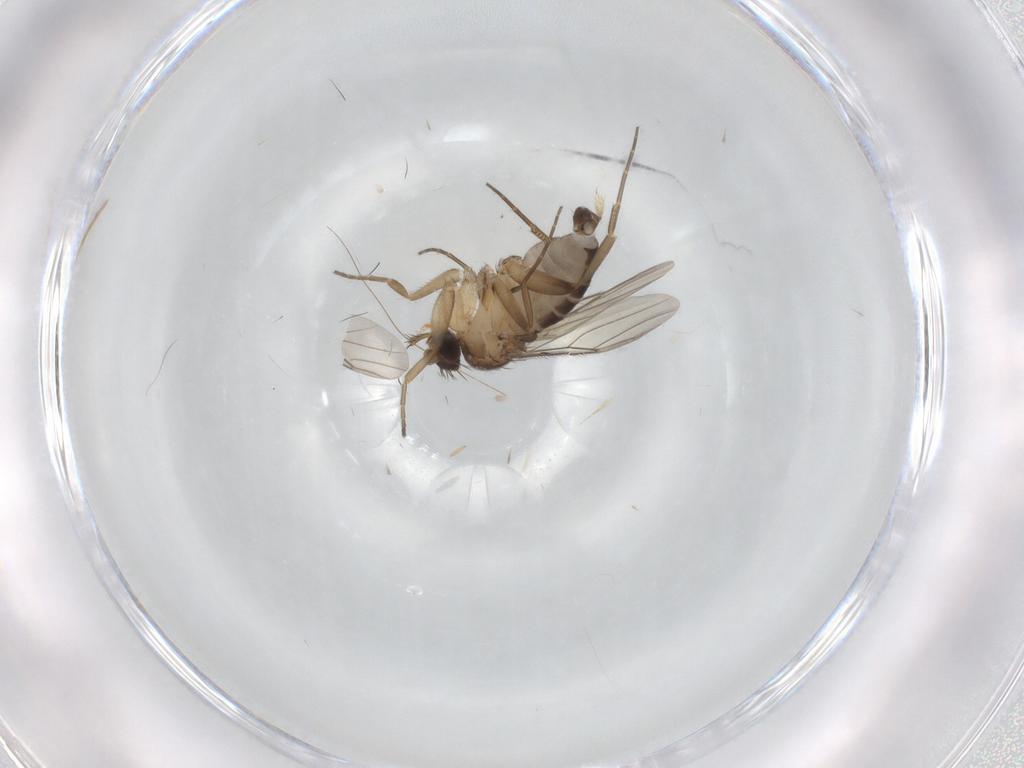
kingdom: Animalia
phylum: Arthropoda
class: Insecta
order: Diptera
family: Phoridae
